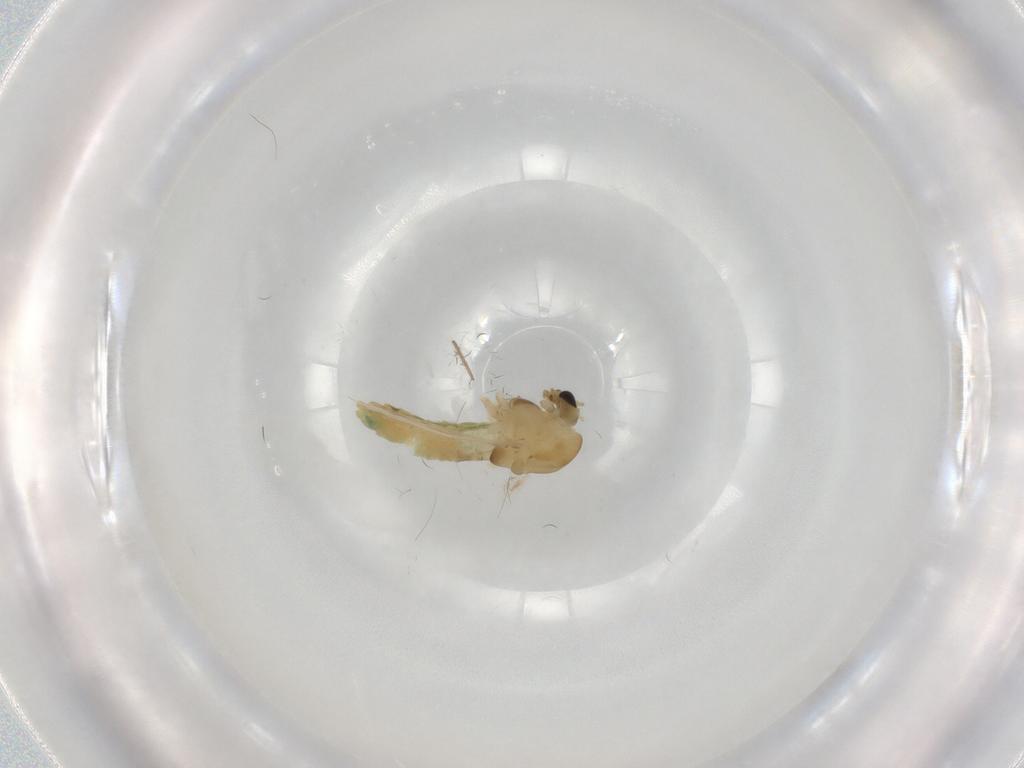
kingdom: Animalia
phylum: Arthropoda
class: Insecta
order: Diptera
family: Chironomidae
